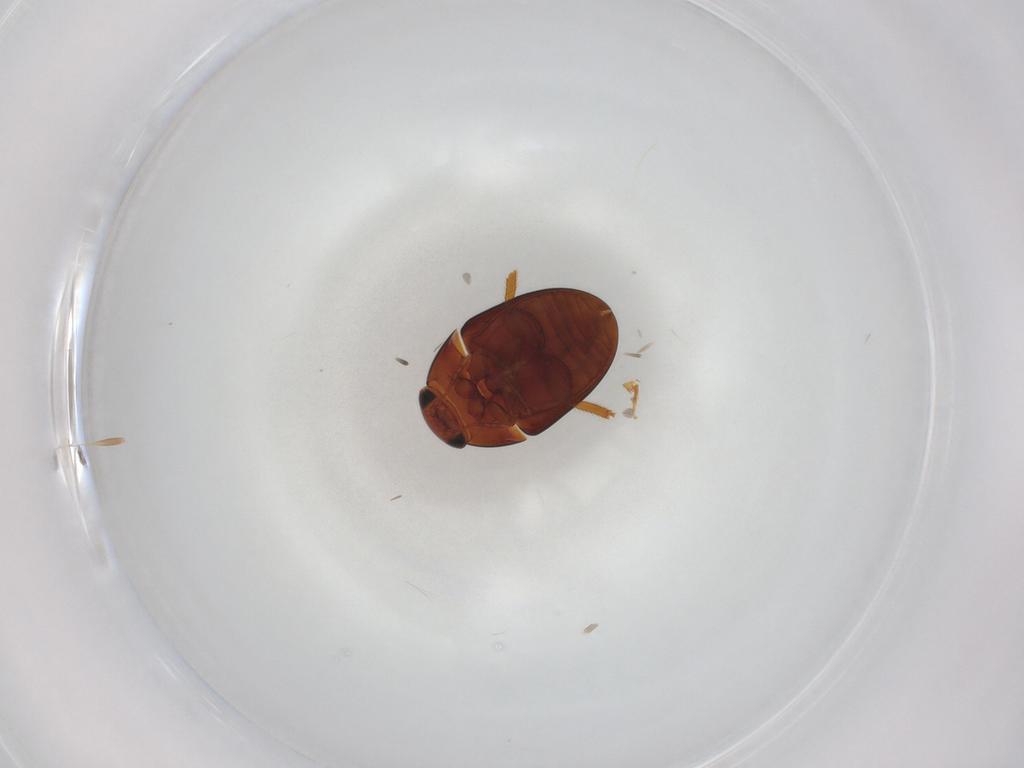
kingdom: Animalia
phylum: Arthropoda
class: Insecta
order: Coleoptera
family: Phalacridae
